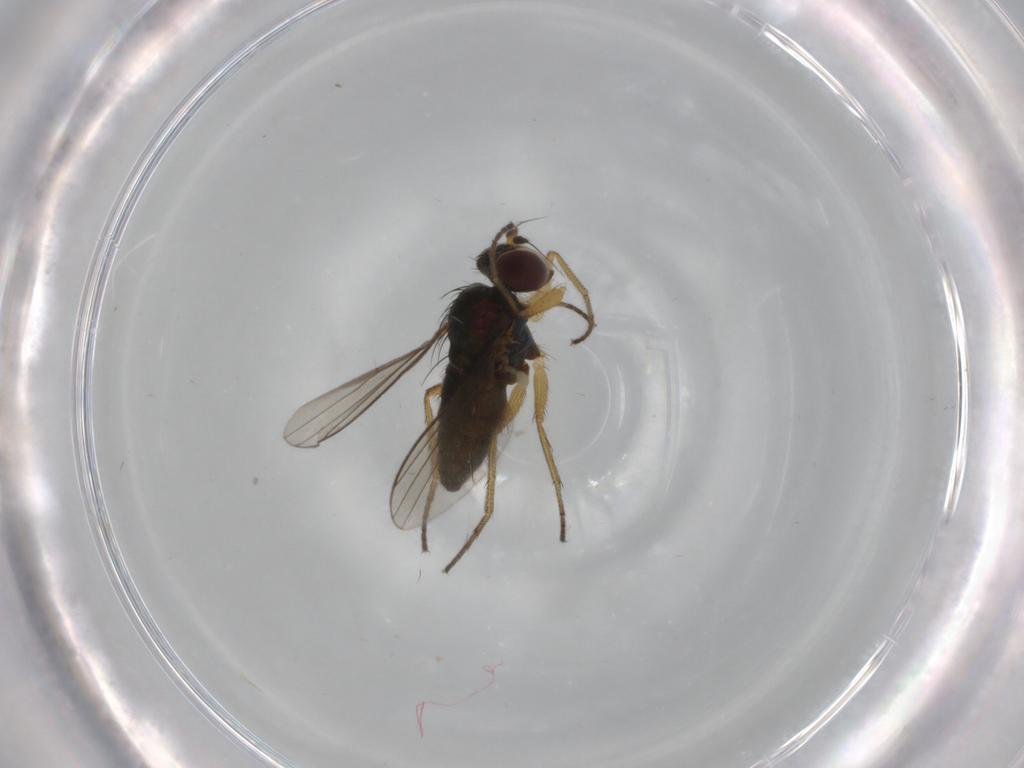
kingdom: Animalia
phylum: Arthropoda
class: Insecta
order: Diptera
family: Dolichopodidae
